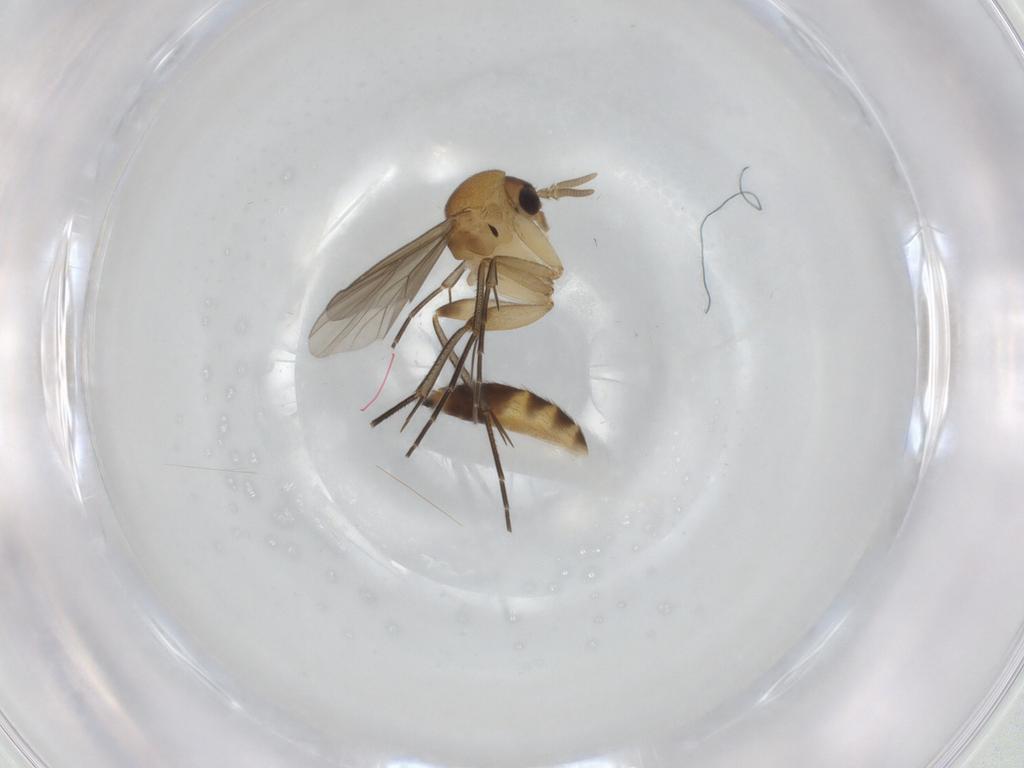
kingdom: Animalia
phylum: Arthropoda
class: Insecta
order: Diptera
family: Mycetophilidae
